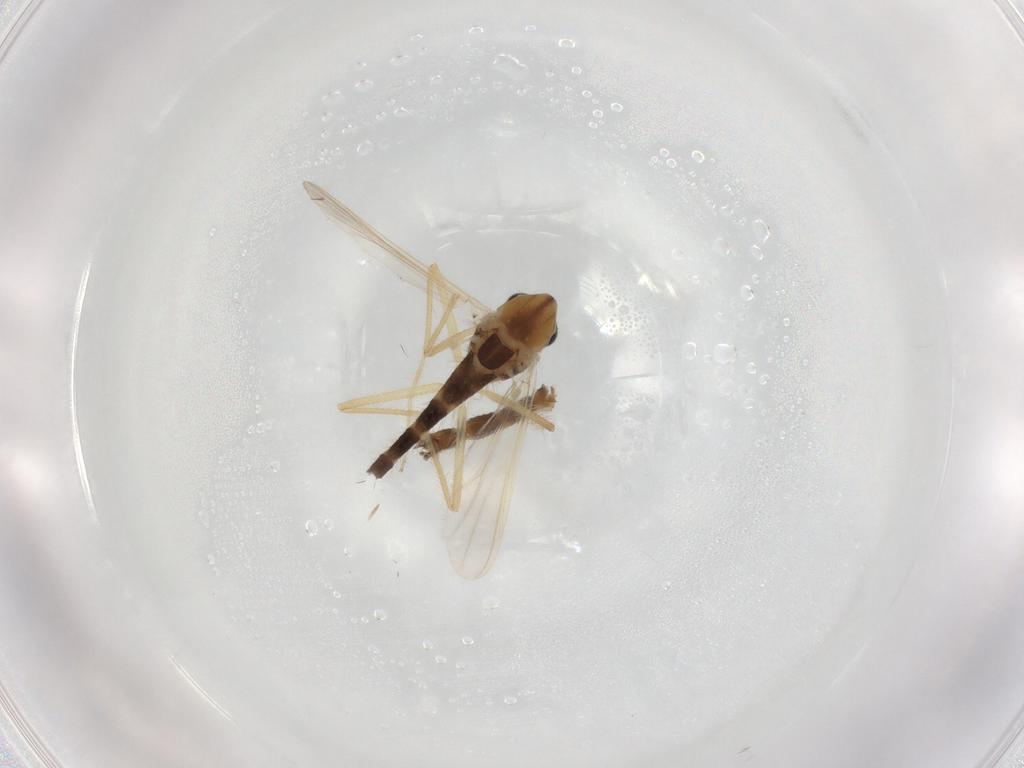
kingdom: Animalia
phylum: Arthropoda
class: Insecta
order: Diptera
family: Chironomidae
